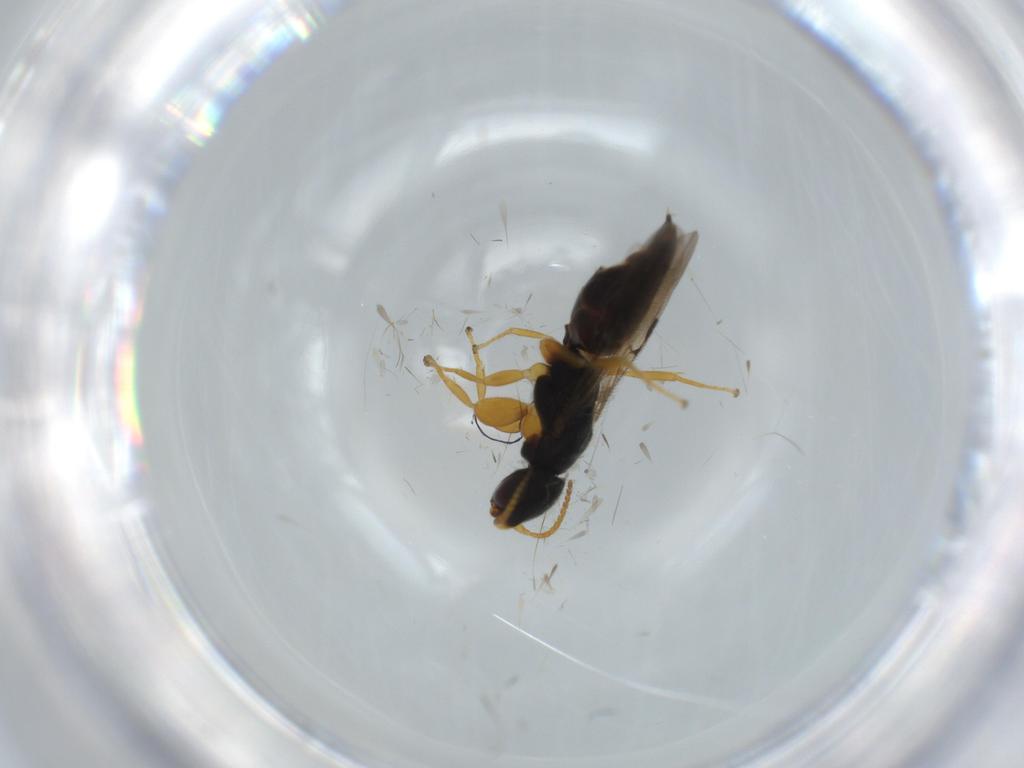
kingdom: Animalia
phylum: Arthropoda
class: Insecta
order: Hymenoptera
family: Bethylidae
